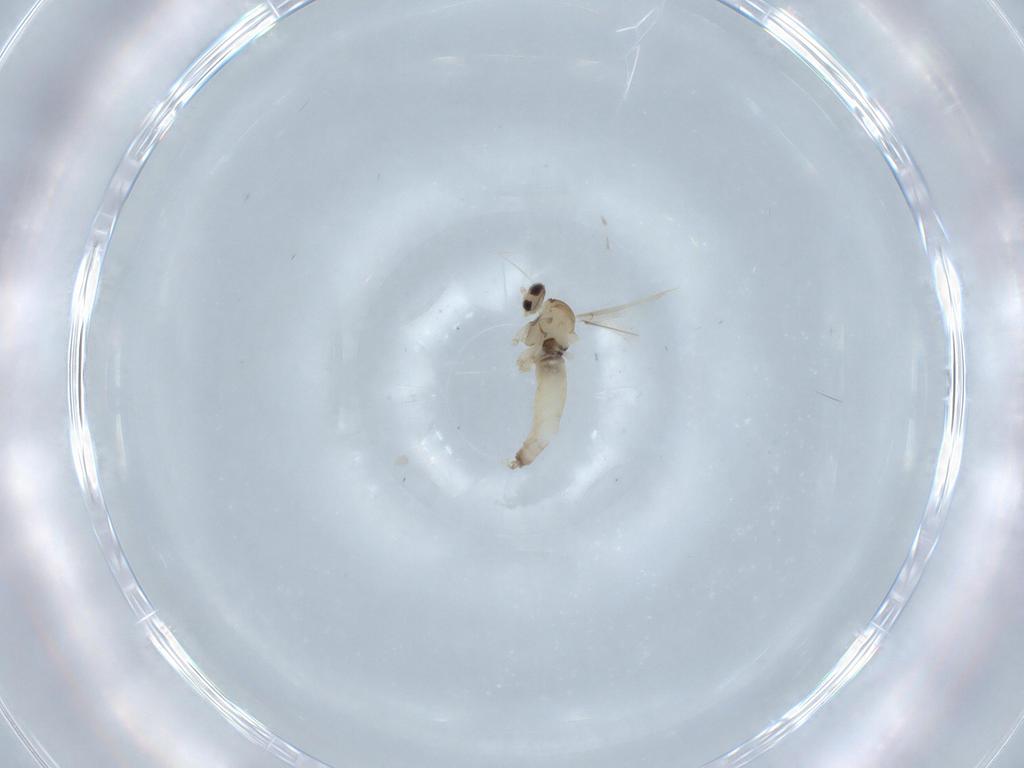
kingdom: Animalia
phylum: Arthropoda
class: Insecta
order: Diptera
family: Cecidomyiidae
